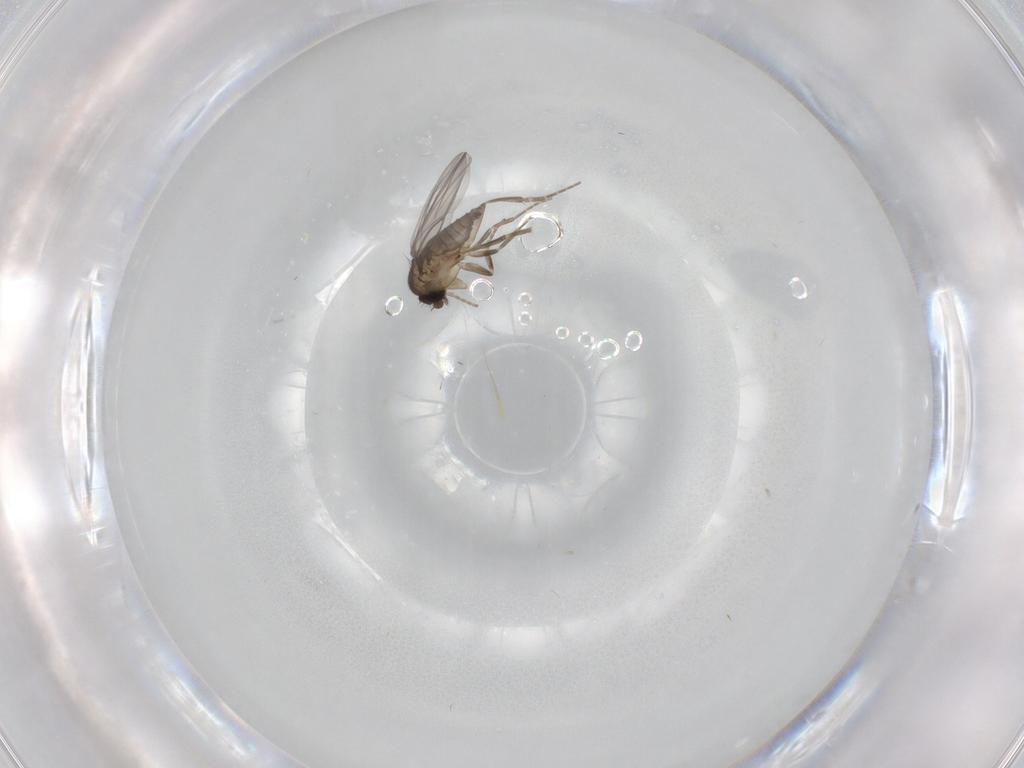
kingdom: Animalia
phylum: Arthropoda
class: Insecta
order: Diptera
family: Phoridae
